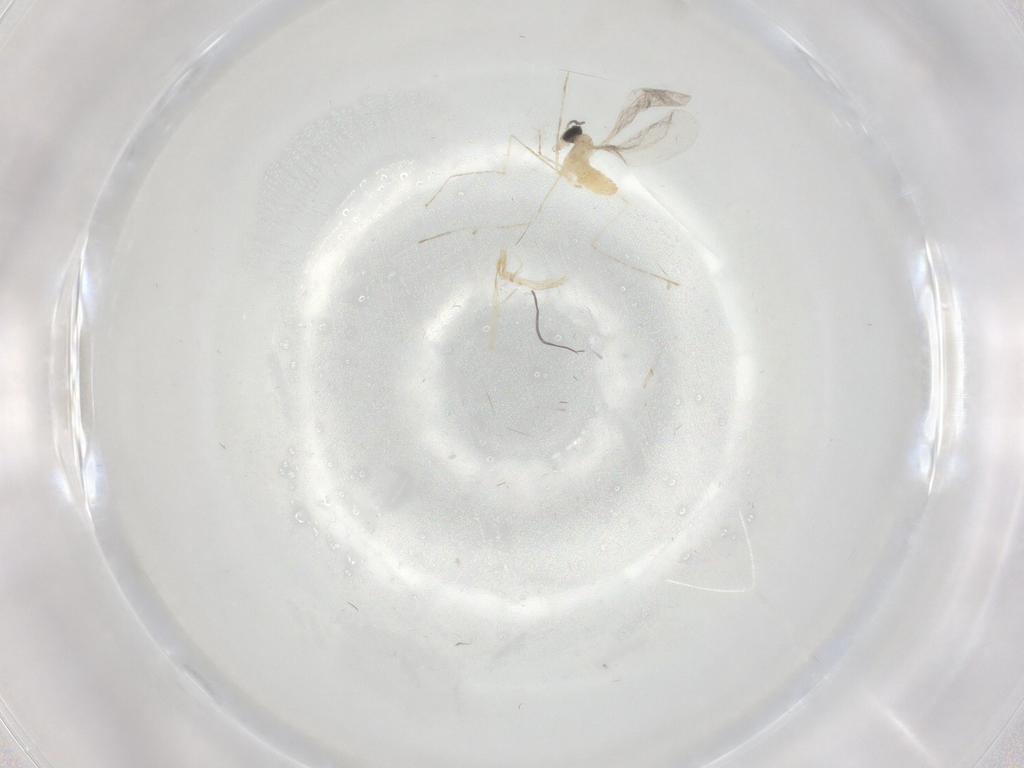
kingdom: Animalia
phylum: Arthropoda
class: Insecta
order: Diptera
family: Cecidomyiidae
